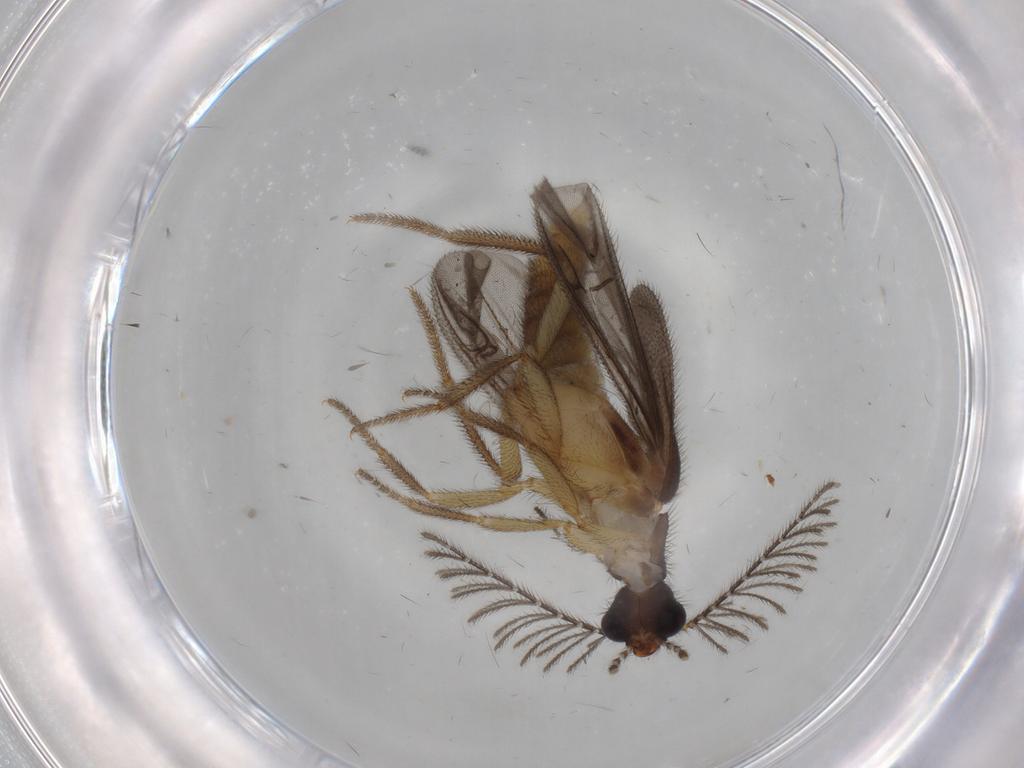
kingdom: Animalia
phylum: Arthropoda
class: Insecta
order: Coleoptera
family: Phengodidae
